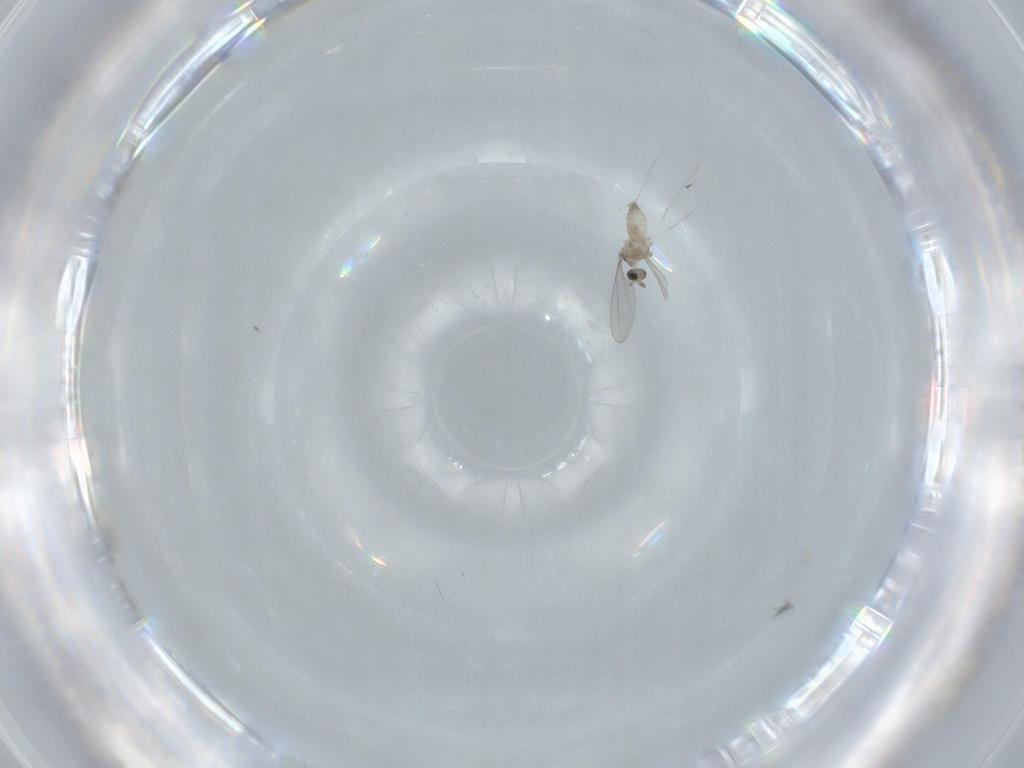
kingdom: Animalia
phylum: Arthropoda
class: Insecta
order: Diptera
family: Cecidomyiidae
